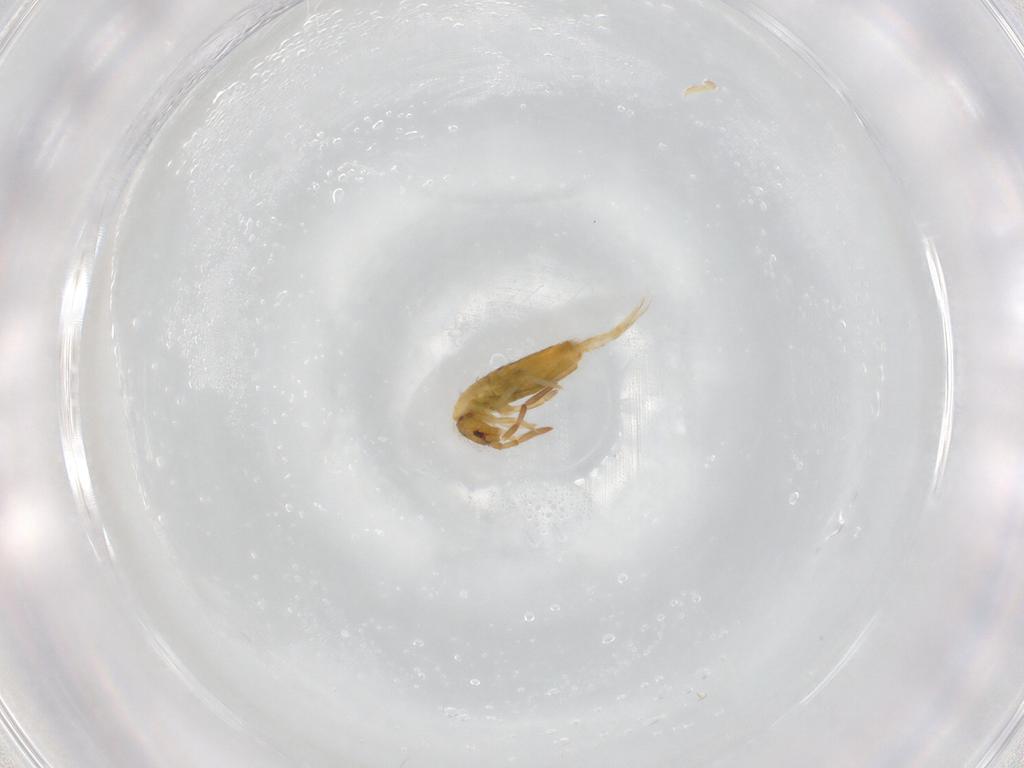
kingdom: Animalia
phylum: Arthropoda
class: Collembola
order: Entomobryomorpha
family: Entomobryidae
